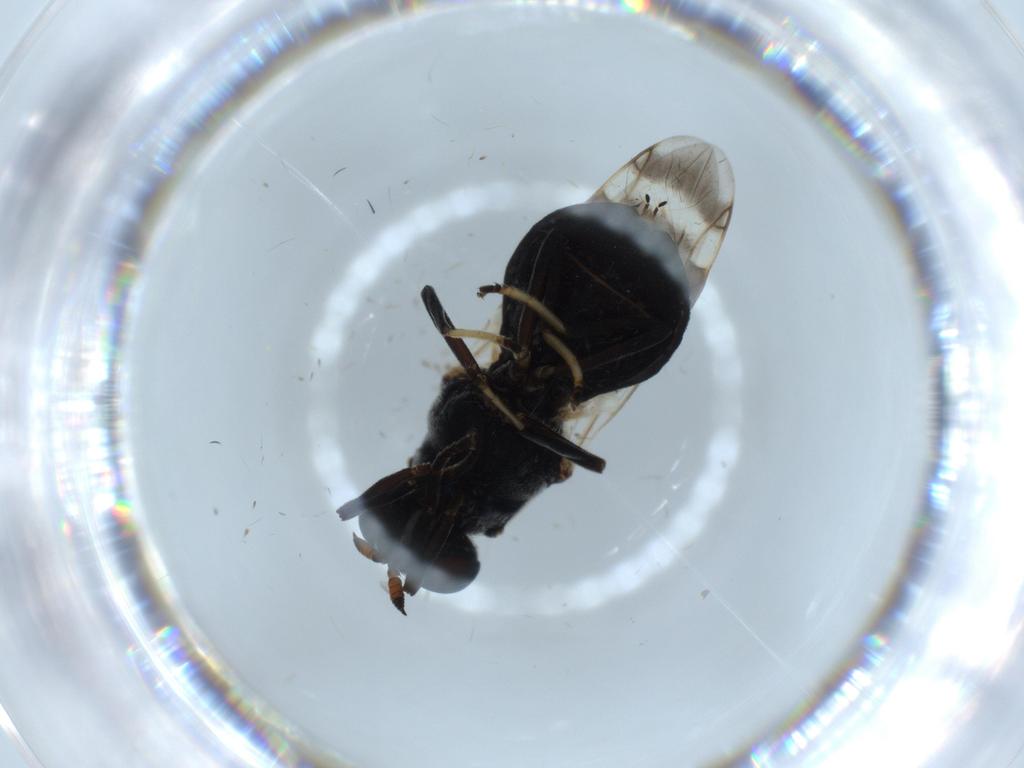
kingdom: Animalia
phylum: Arthropoda
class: Insecta
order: Diptera
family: Stratiomyidae
